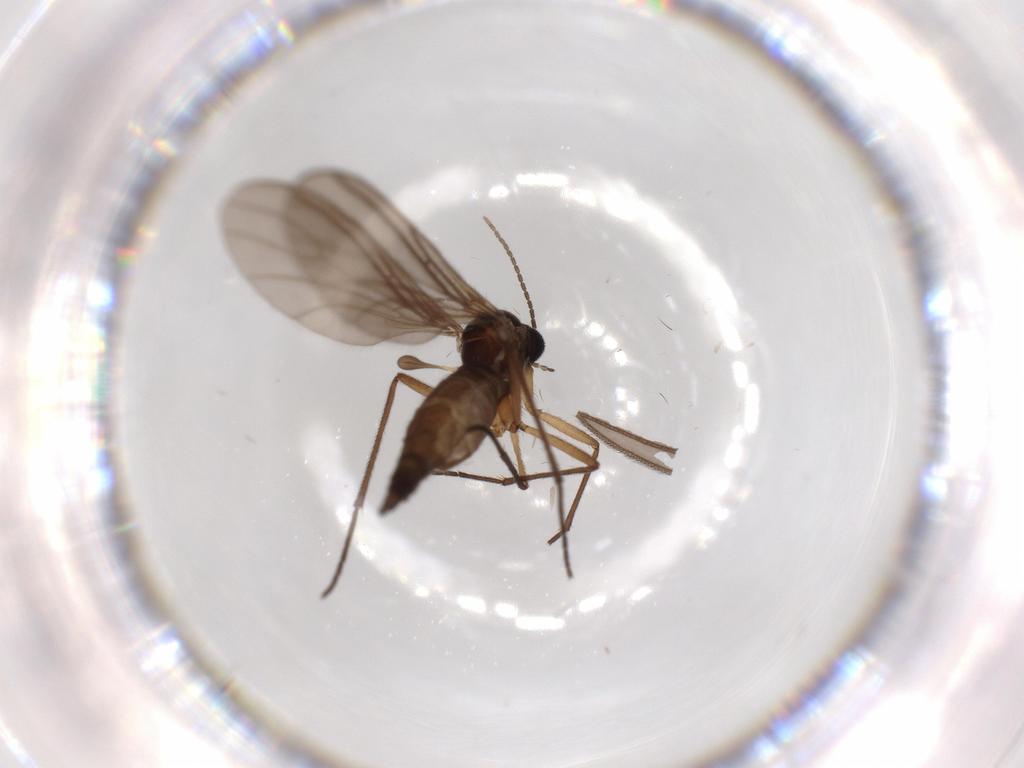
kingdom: Animalia
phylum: Arthropoda
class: Insecta
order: Diptera
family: Sciaridae
